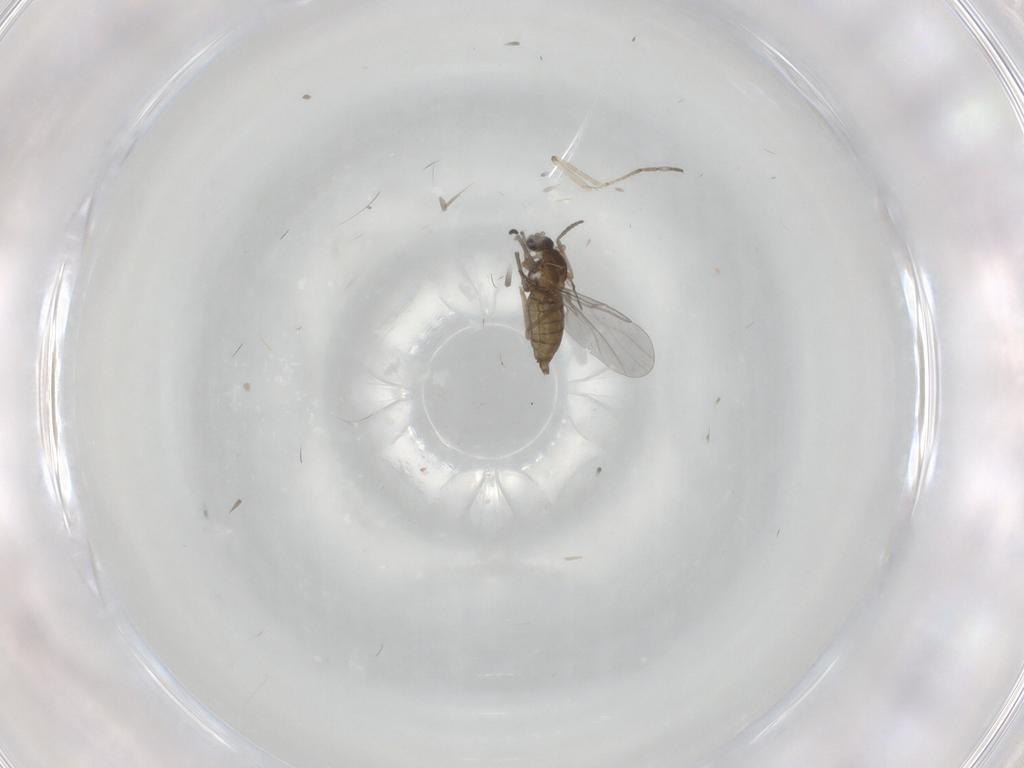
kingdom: Animalia
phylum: Arthropoda
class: Insecta
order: Diptera
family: Cecidomyiidae
